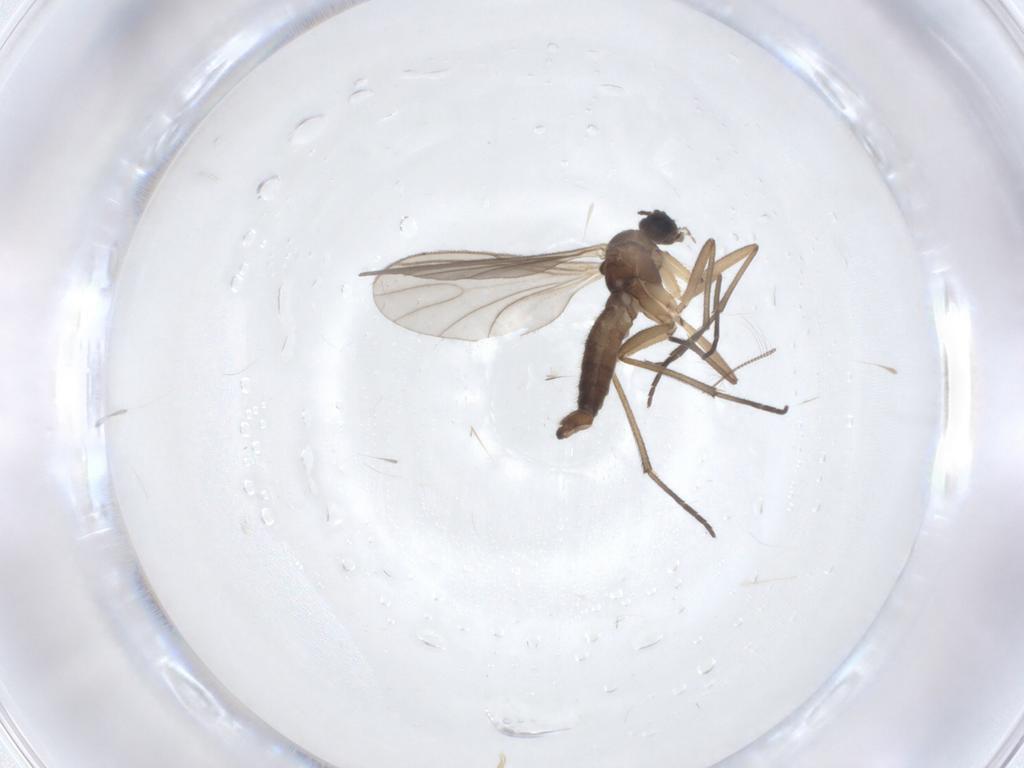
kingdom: Animalia
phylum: Arthropoda
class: Insecta
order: Diptera
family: Sciaridae
